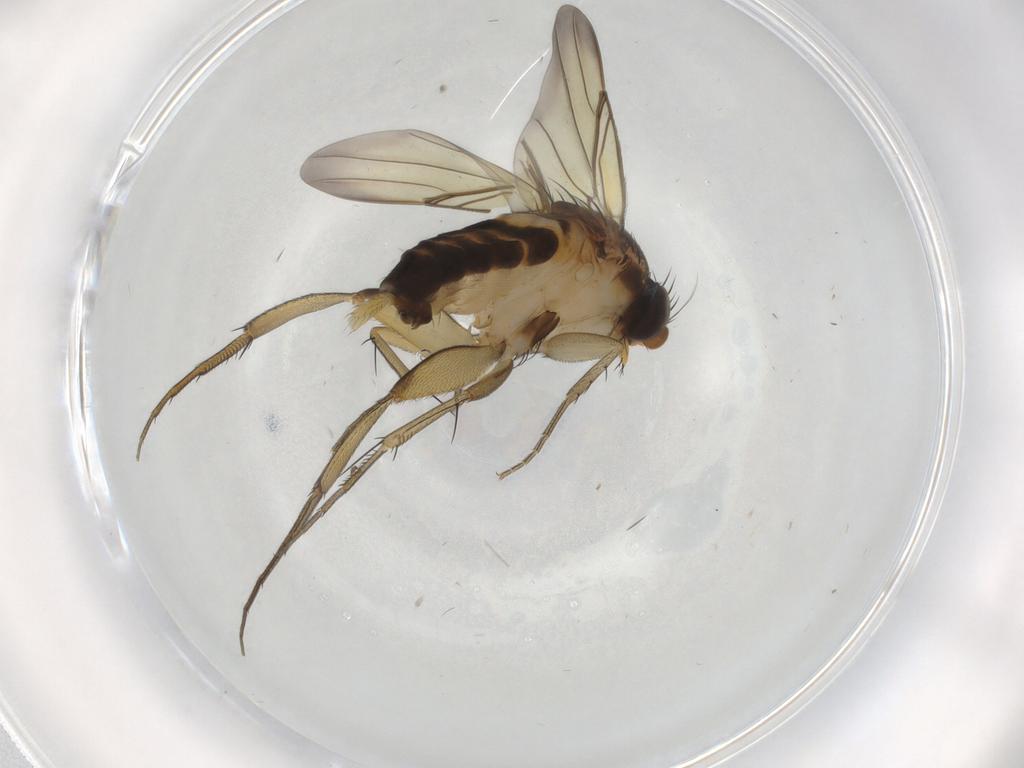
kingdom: Animalia
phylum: Arthropoda
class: Insecta
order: Diptera
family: Phoridae
